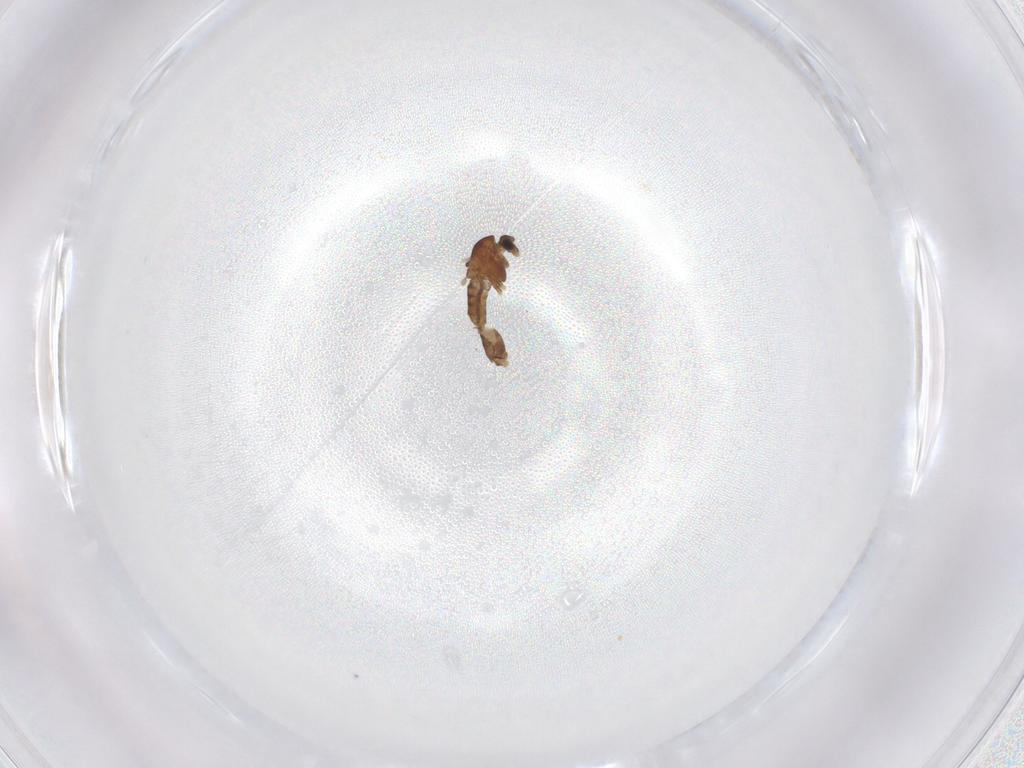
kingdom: Animalia
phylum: Arthropoda
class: Insecta
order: Diptera
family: Chironomidae
